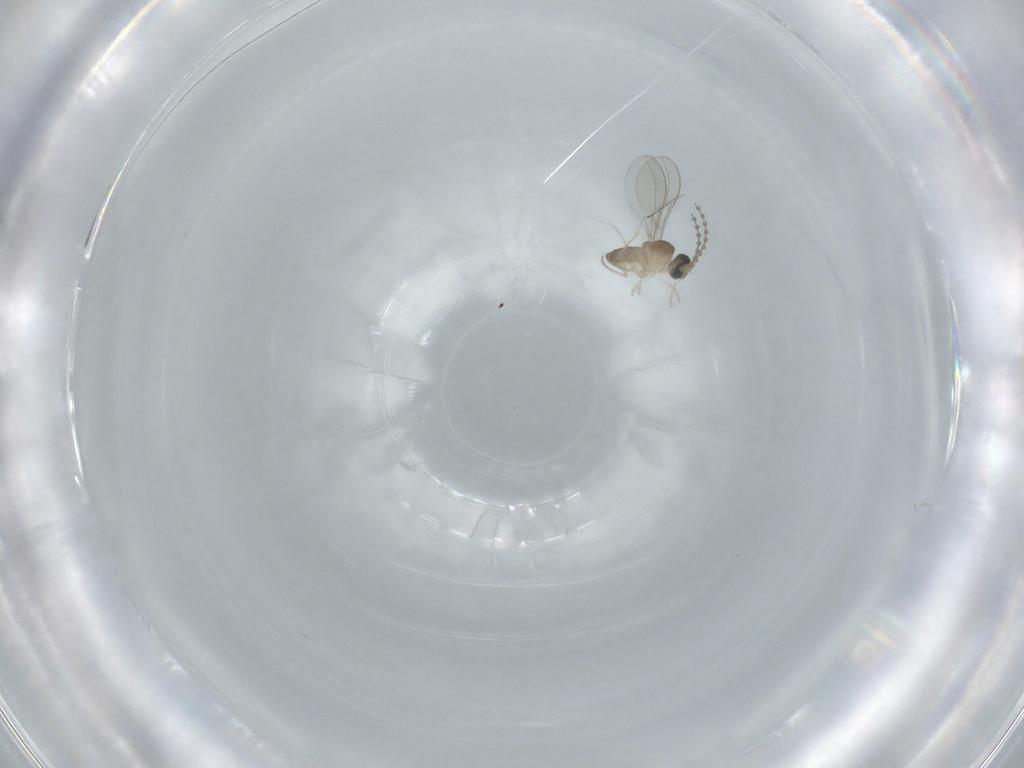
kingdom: Animalia
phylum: Arthropoda
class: Insecta
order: Diptera
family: Cecidomyiidae
